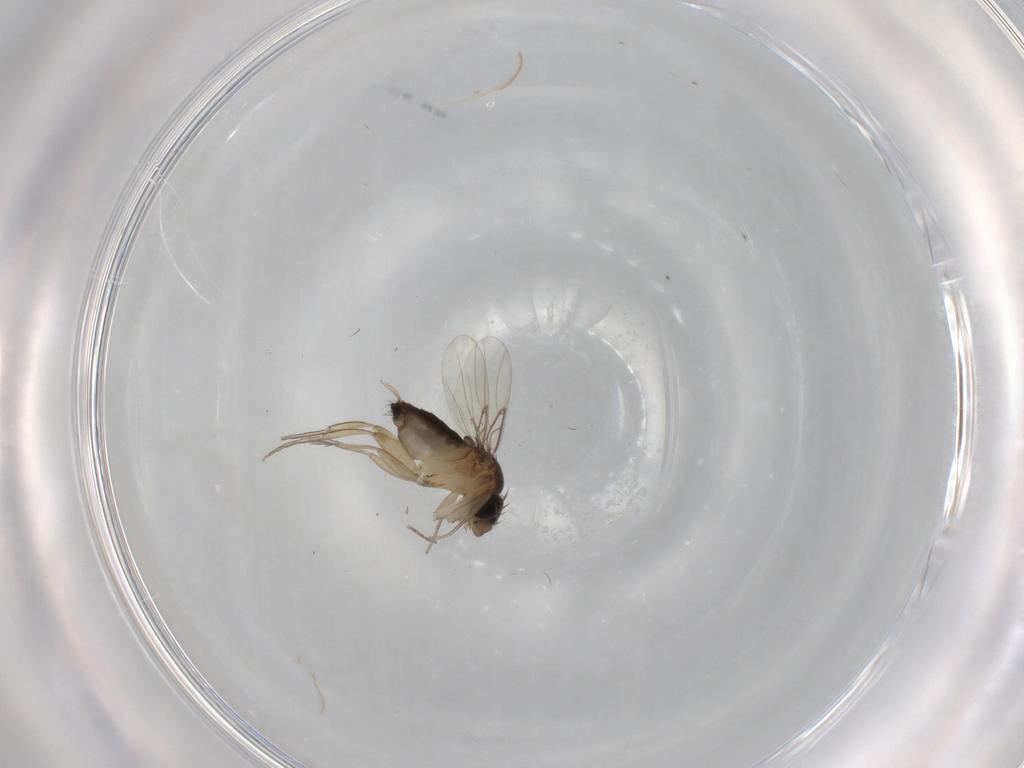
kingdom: Animalia
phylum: Arthropoda
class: Insecta
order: Diptera
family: Phoridae
